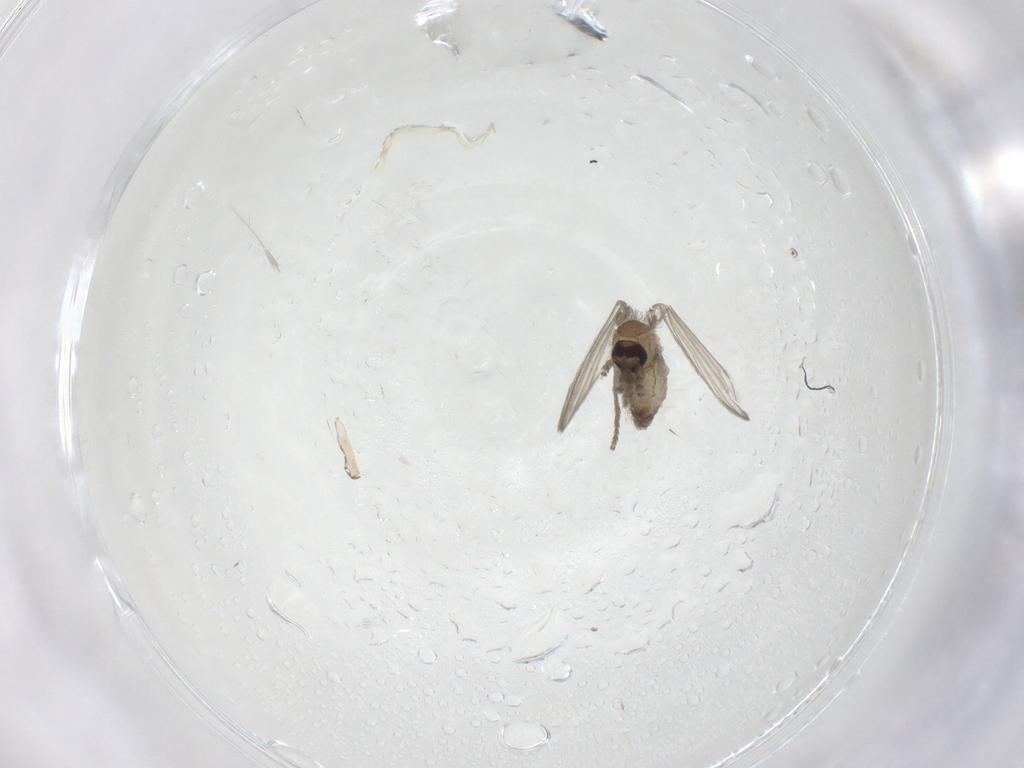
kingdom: Animalia
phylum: Arthropoda
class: Insecta
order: Diptera
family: Psychodidae
